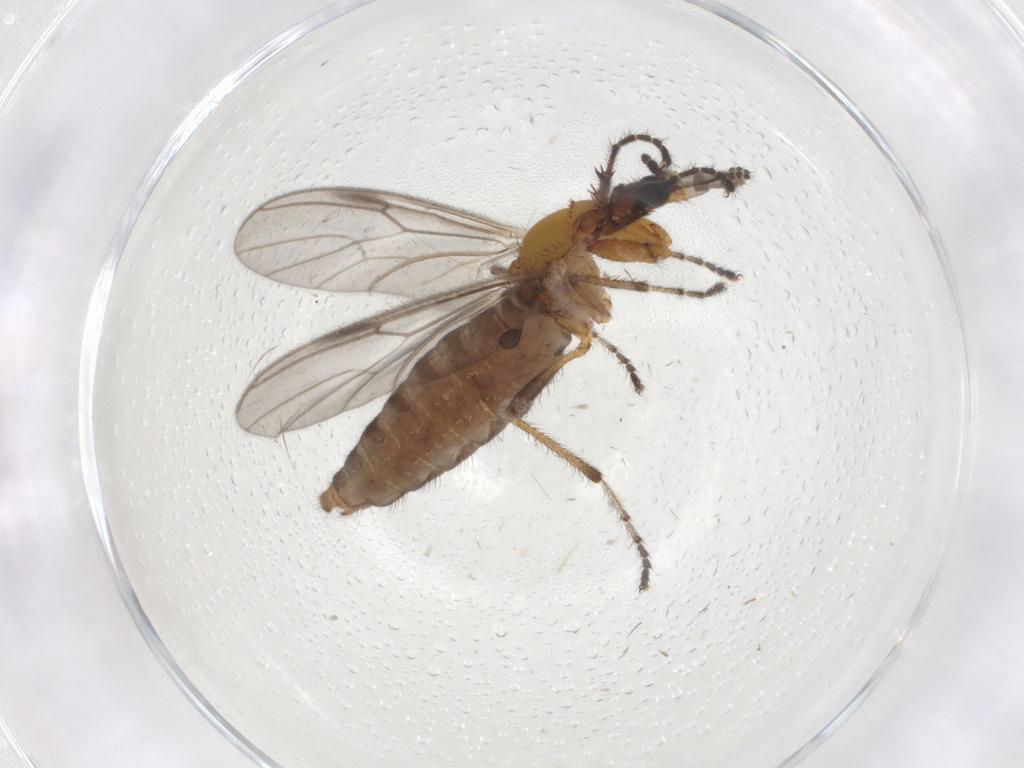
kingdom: Animalia
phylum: Arthropoda
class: Insecta
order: Diptera
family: Bibionidae
